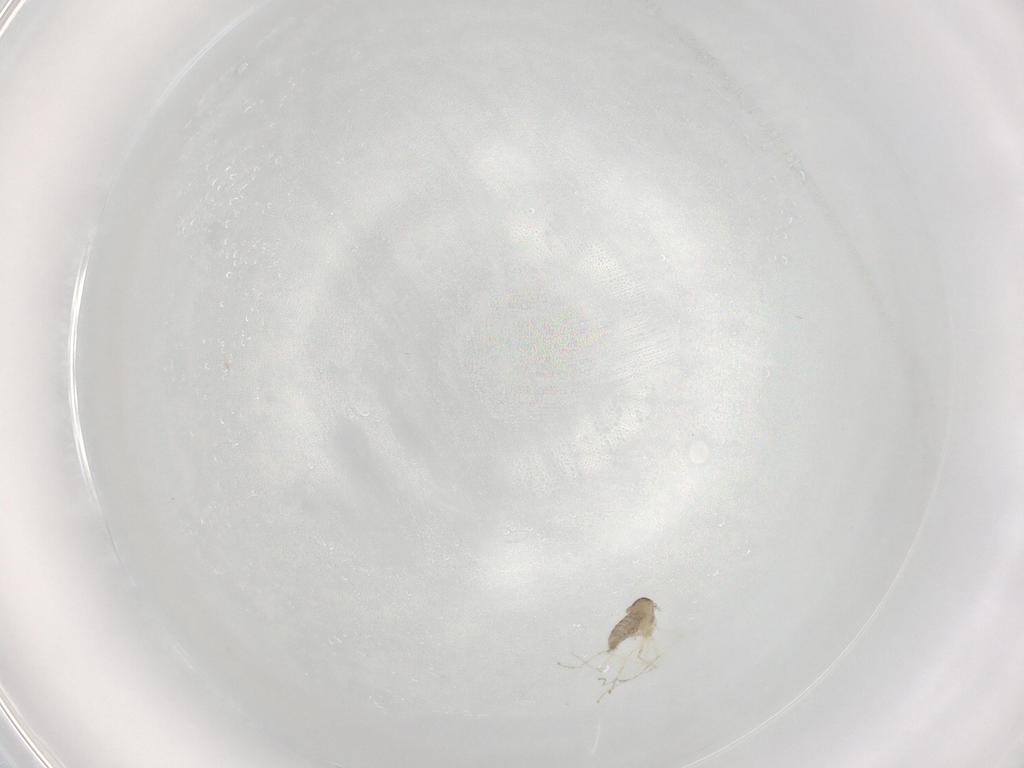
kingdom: Animalia
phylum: Arthropoda
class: Insecta
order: Diptera
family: Cecidomyiidae
